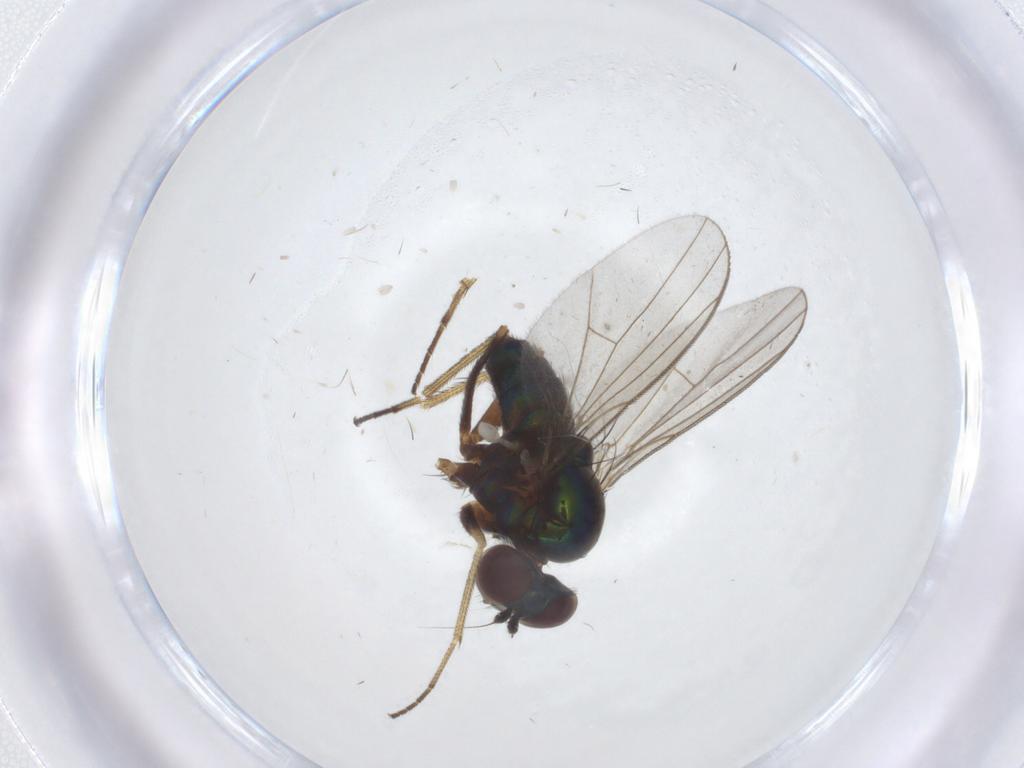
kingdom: Animalia
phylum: Arthropoda
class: Insecta
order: Diptera
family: Dolichopodidae
